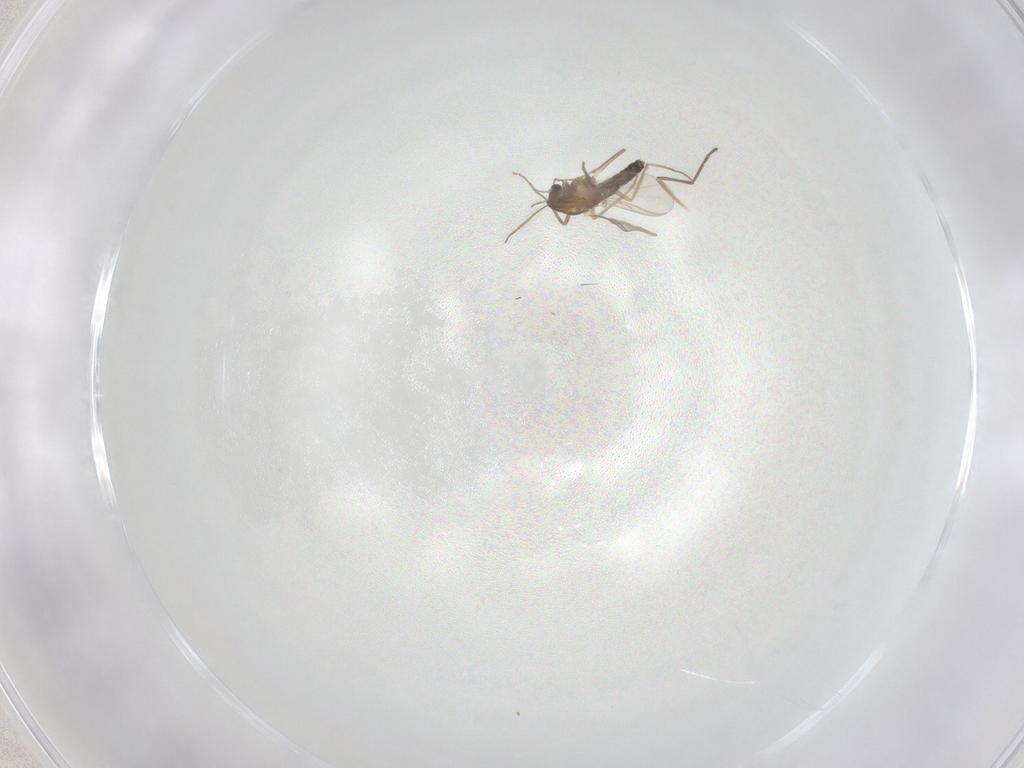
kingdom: Animalia
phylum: Arthropoda
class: Insecta
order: Diptera
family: Chironomidae
